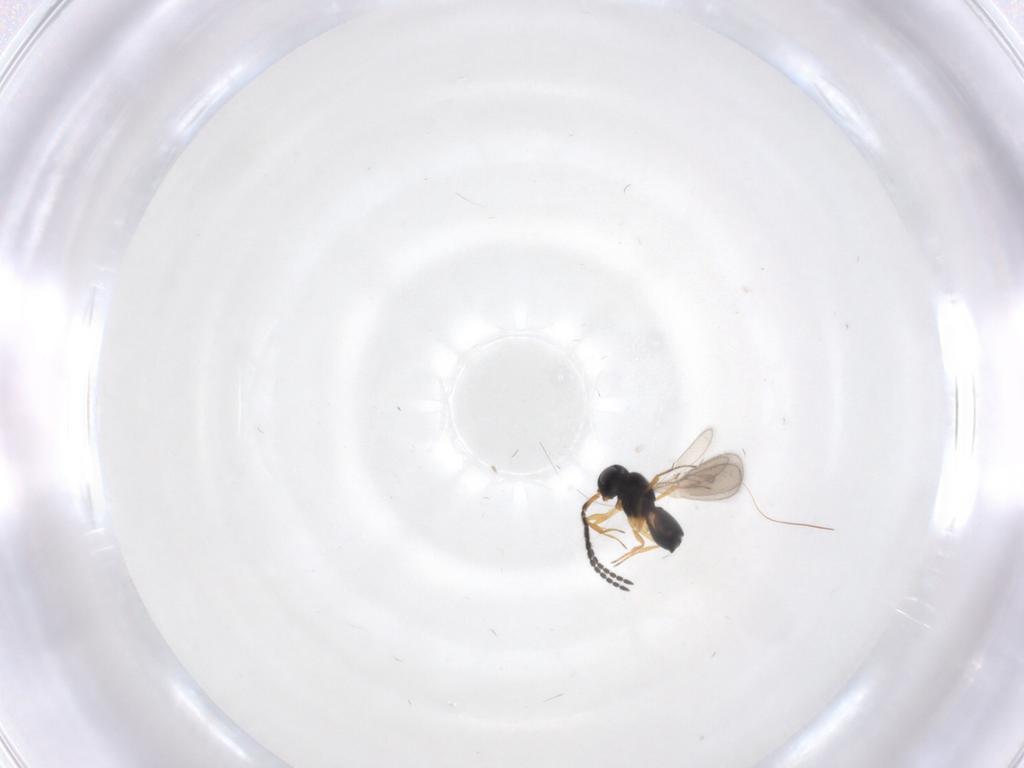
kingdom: Animalia
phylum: Arthropoda
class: Insecta
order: Hymenoptera
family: Scelionidae
